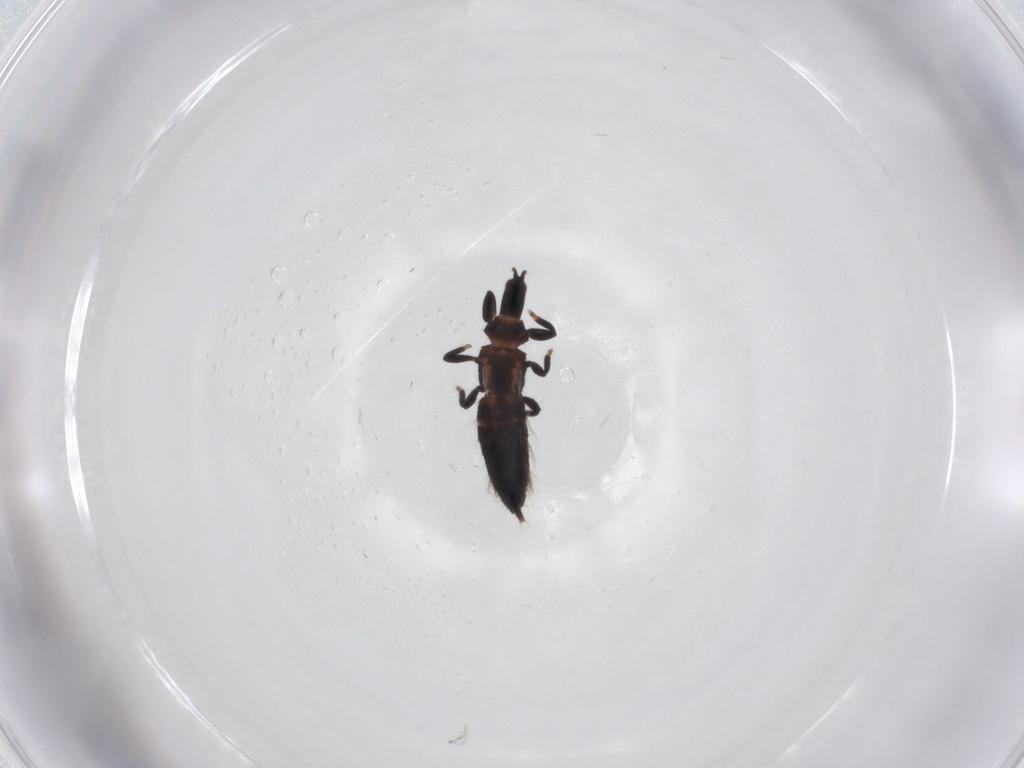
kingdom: Animalia
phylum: Arthropoda
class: Insecta
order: Thysanoptera
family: Phlaeothripidae
